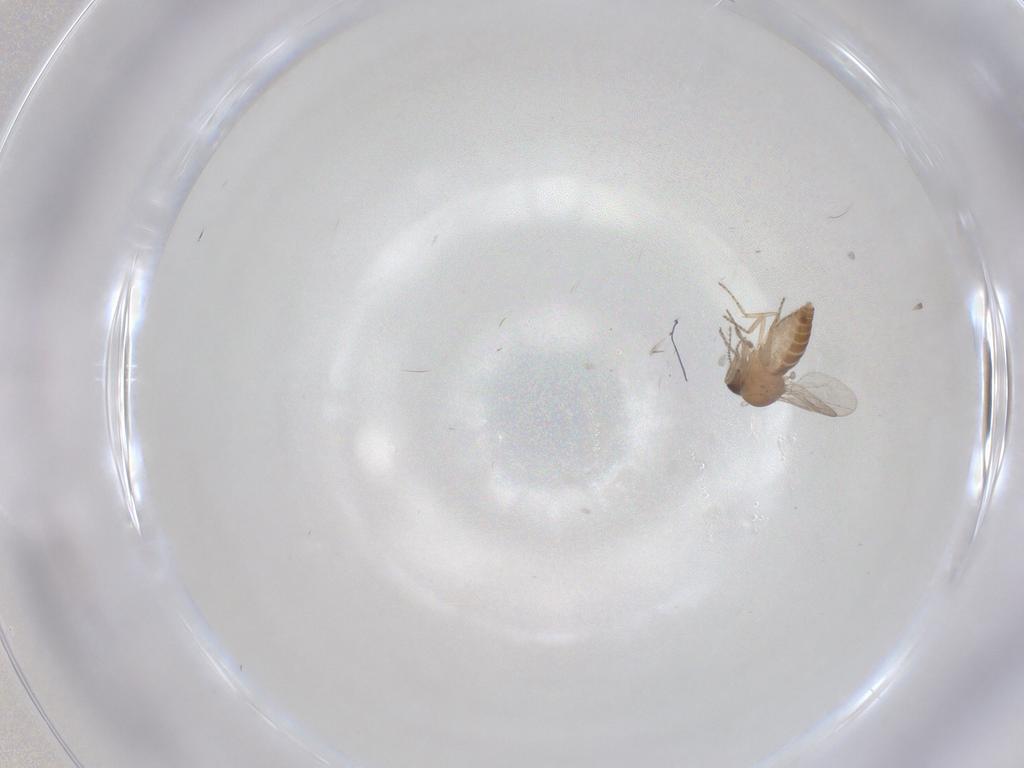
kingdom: Animalia
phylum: Arthropoda
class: Insecta
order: Diptera
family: Ceratopogonidae
